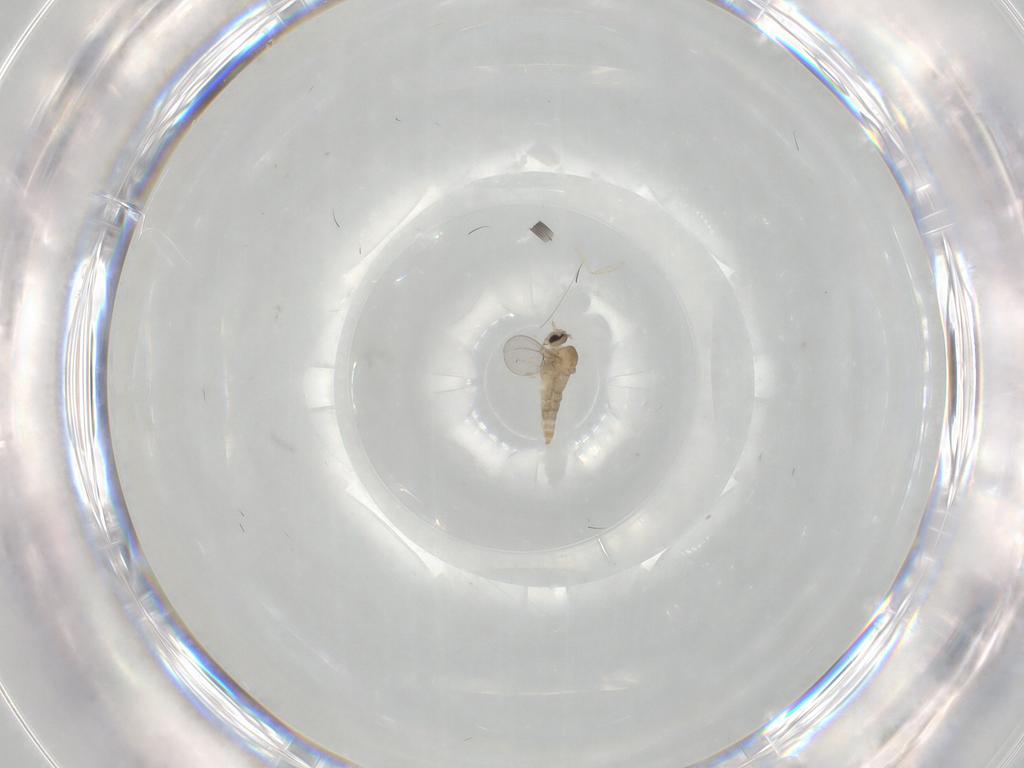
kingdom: Animalia
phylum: Arthropoda
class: Insecta
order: Diptera
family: Cecidomyiidae
